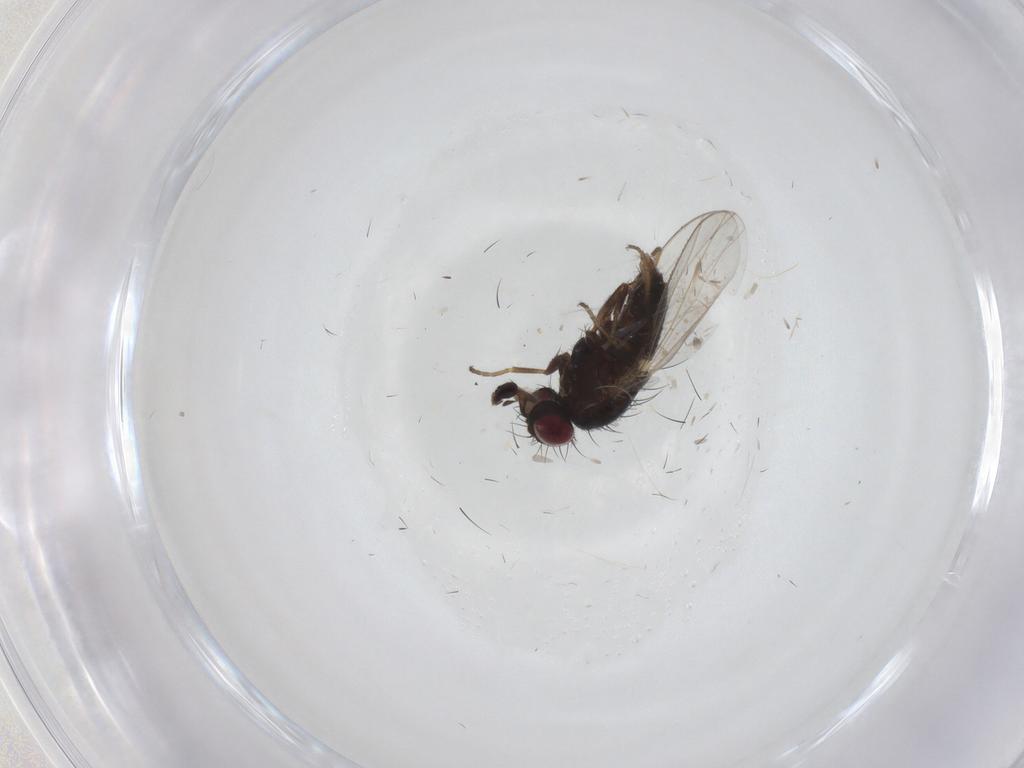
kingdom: Animalia
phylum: Arthropoda
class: Insecta
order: Diptera
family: Carnidae
